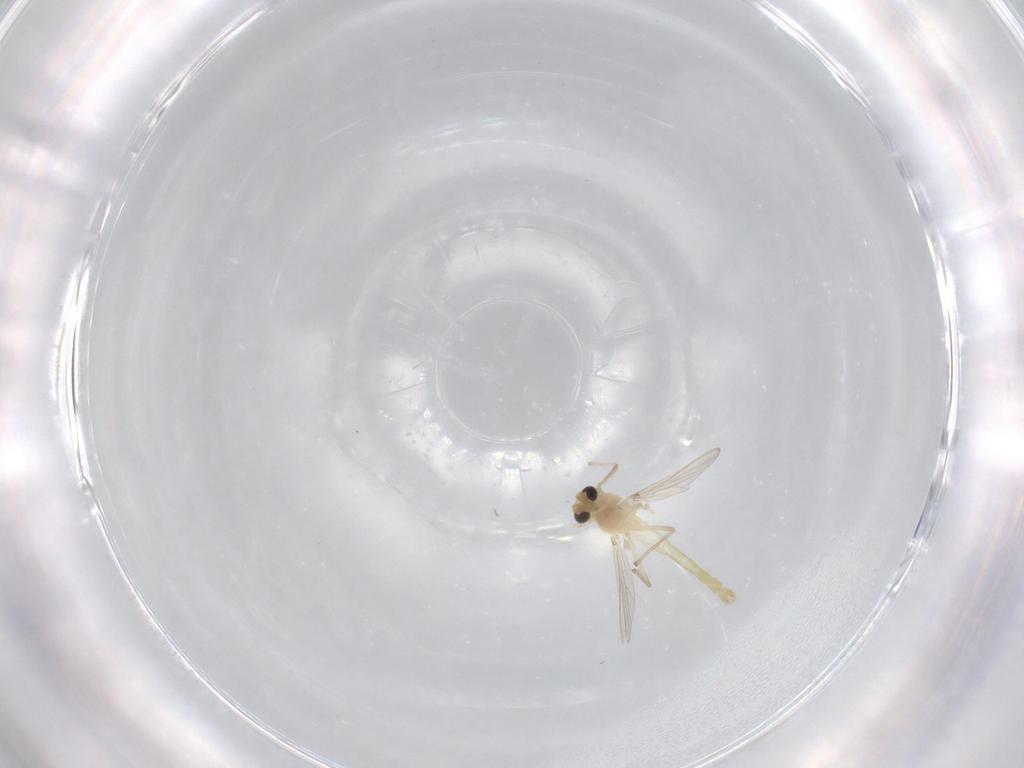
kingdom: Animalia
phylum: Arthropoda
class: Insecta
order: Diptera
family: Chironomidae
